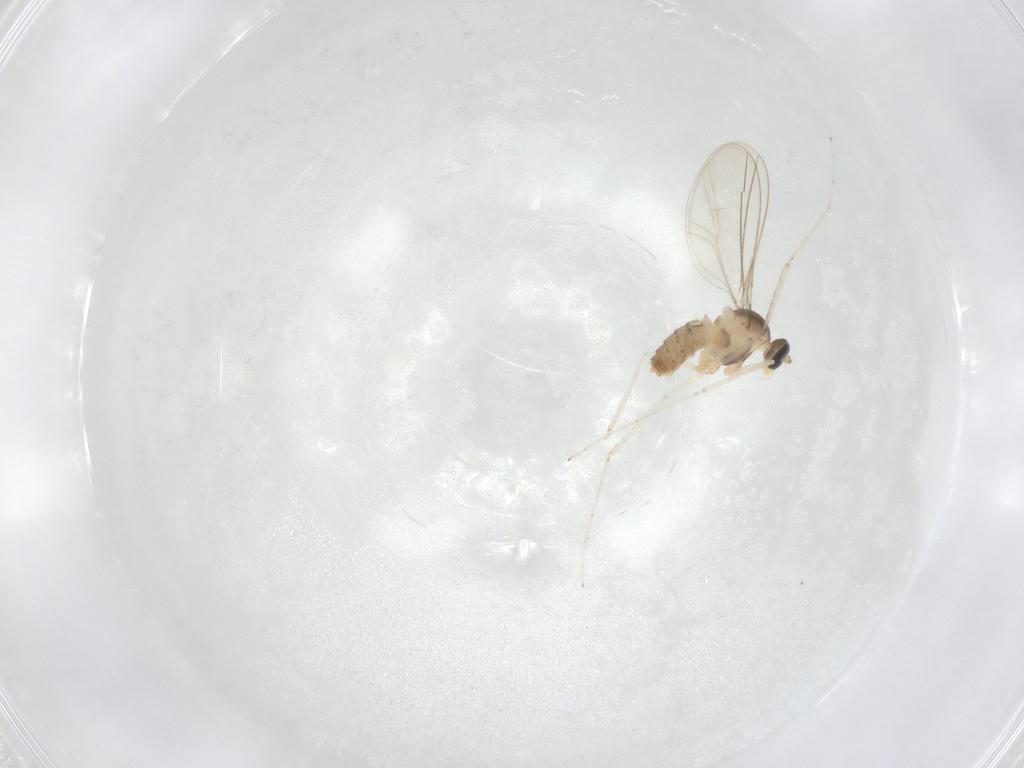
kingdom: Animalia
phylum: Arthropoda
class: Insecta
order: Diptera
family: Cecidomyiidae
